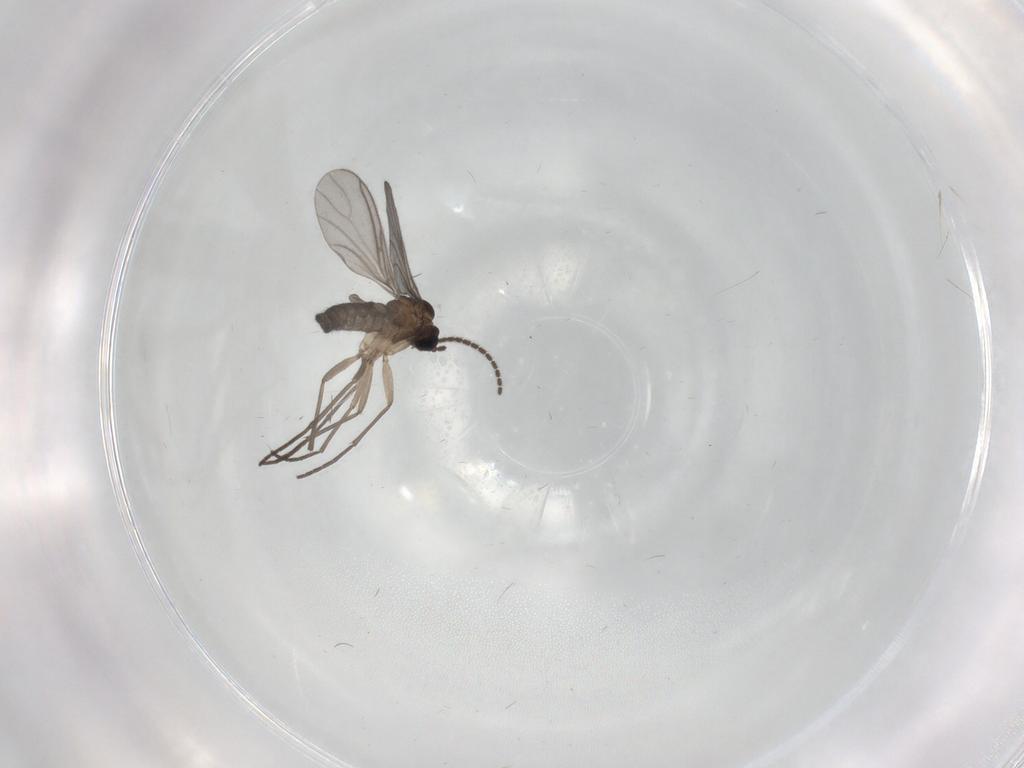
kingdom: Animalia
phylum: Arthropoda
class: Insecta
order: Diptera
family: Sciaridae
